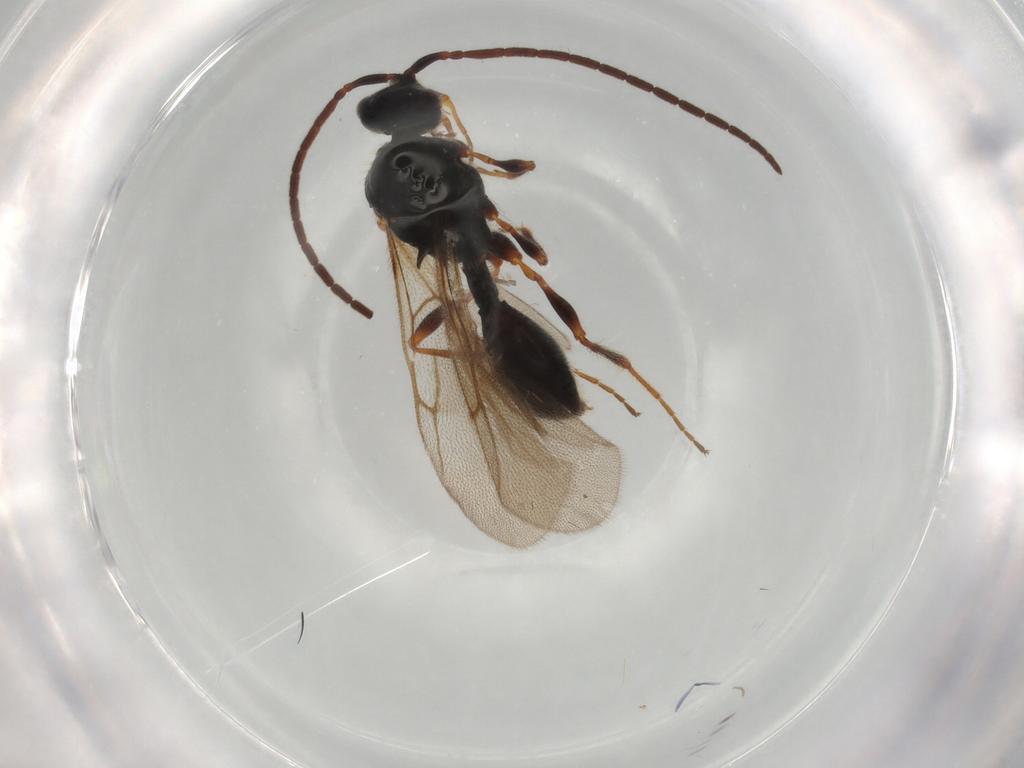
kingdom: Animalia
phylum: Arthropoda
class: Insecta
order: Hymenoptera
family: Formicidae
